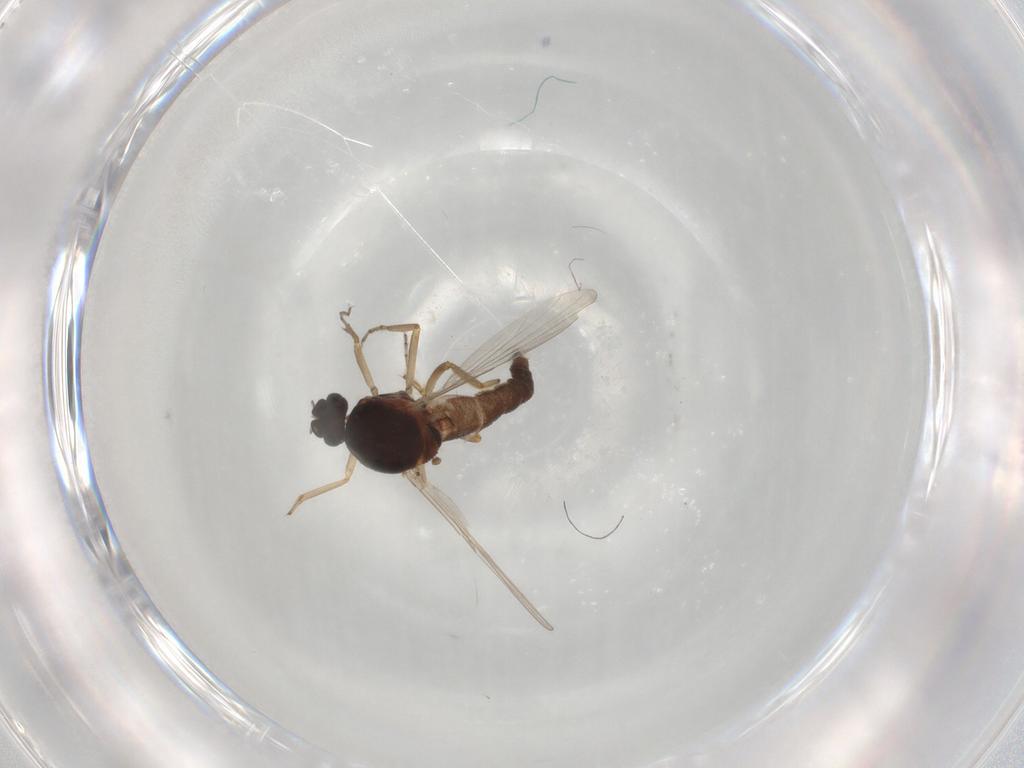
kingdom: Animalia
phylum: Arthropoda
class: Insecta
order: Diptera
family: Ceratopogonidae
